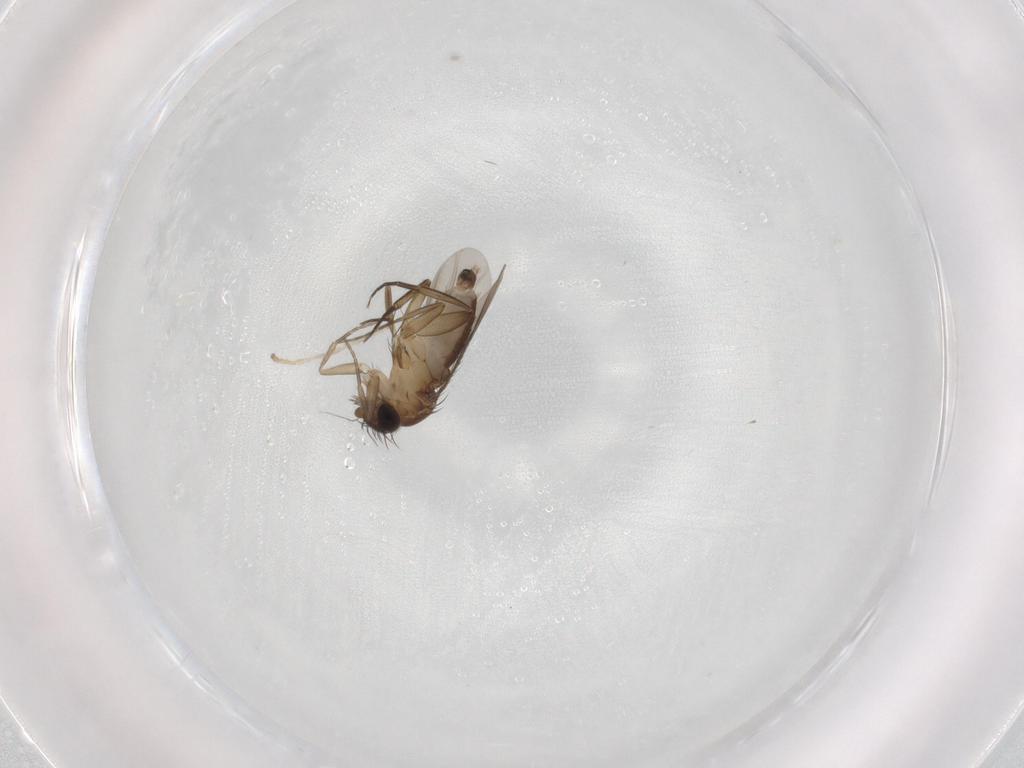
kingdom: Animalia
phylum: Arthropoda
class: Insecta
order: Diptera
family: Phoridae
